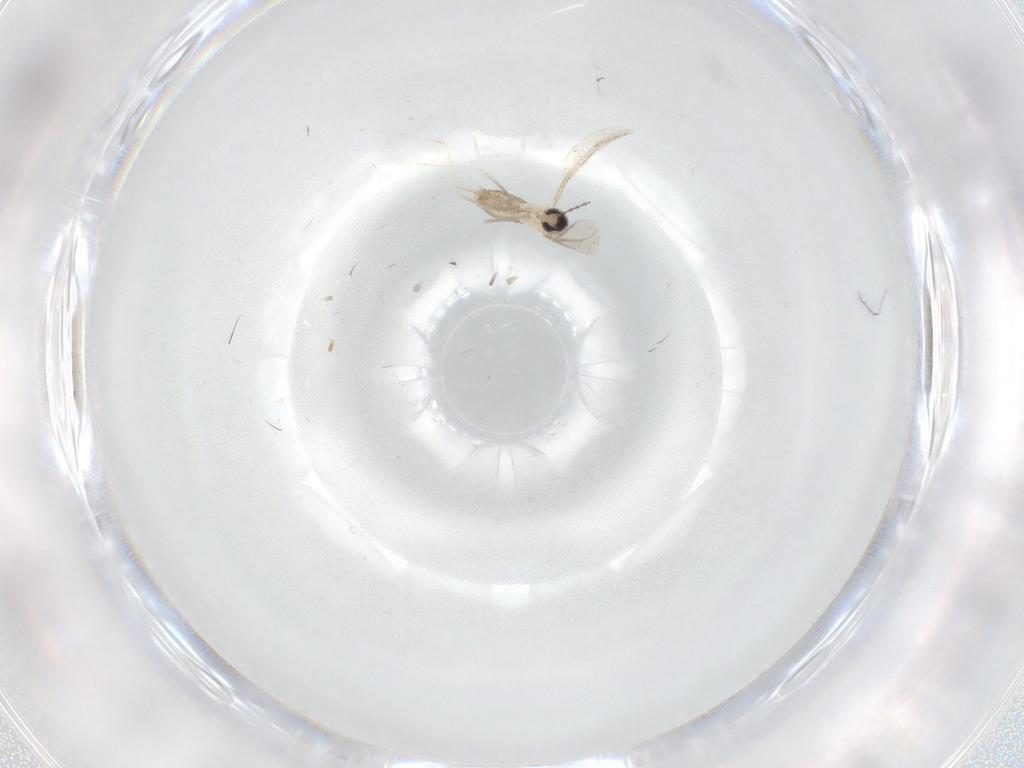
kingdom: Animalia
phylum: Arthropoda
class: Insecta
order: Diptera
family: Cecidomyiidae
